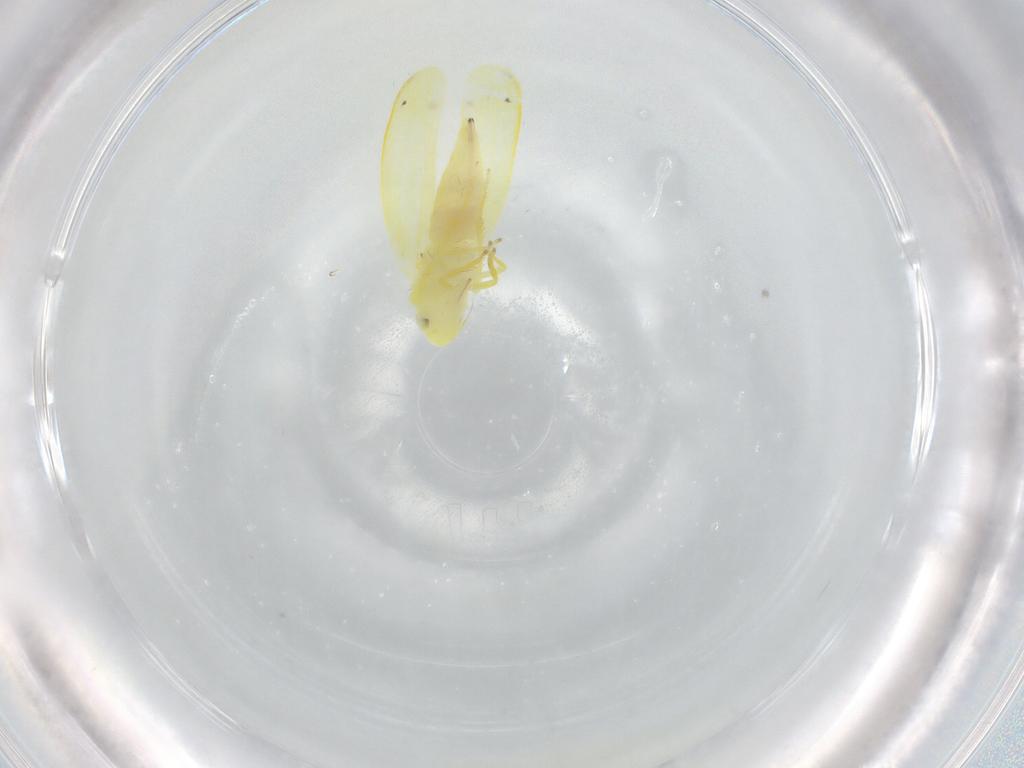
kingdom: Animalia
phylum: Arthropoda
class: Insecta
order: Hemiptera
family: Cicadellidae
